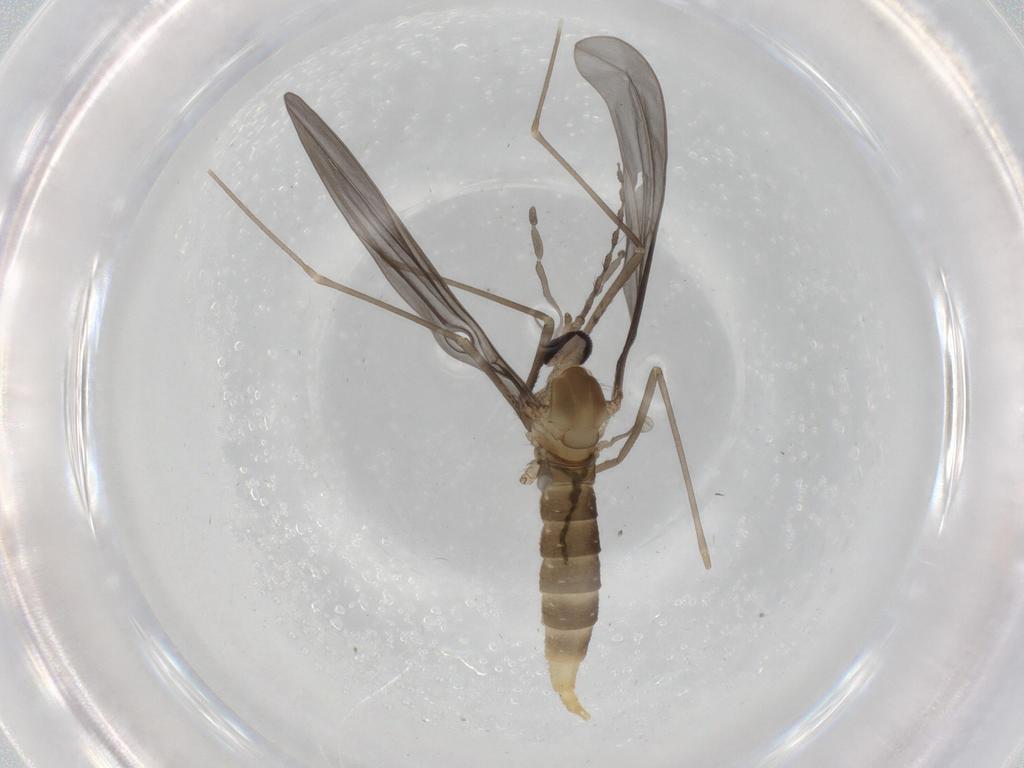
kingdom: Animalia
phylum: Arthropoda
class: Insecta
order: Diptera
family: Cecidomyiidae
